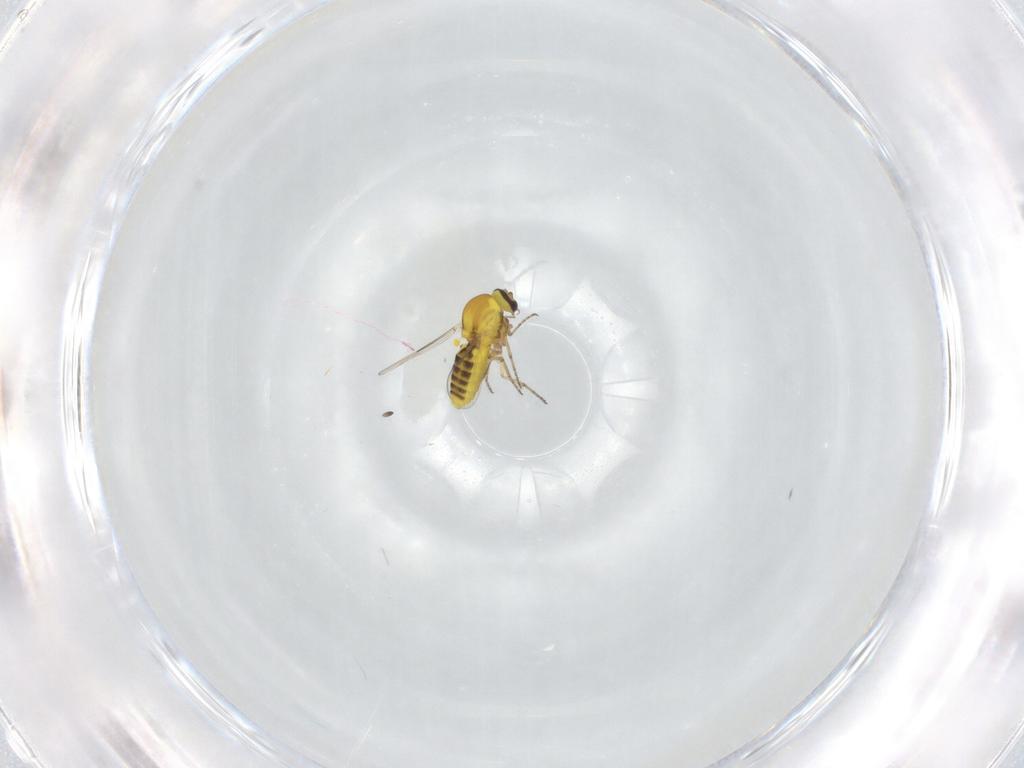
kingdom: Animalia
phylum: Arthropoda
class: Insecta
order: Diptera
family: Ceratopogonidae
